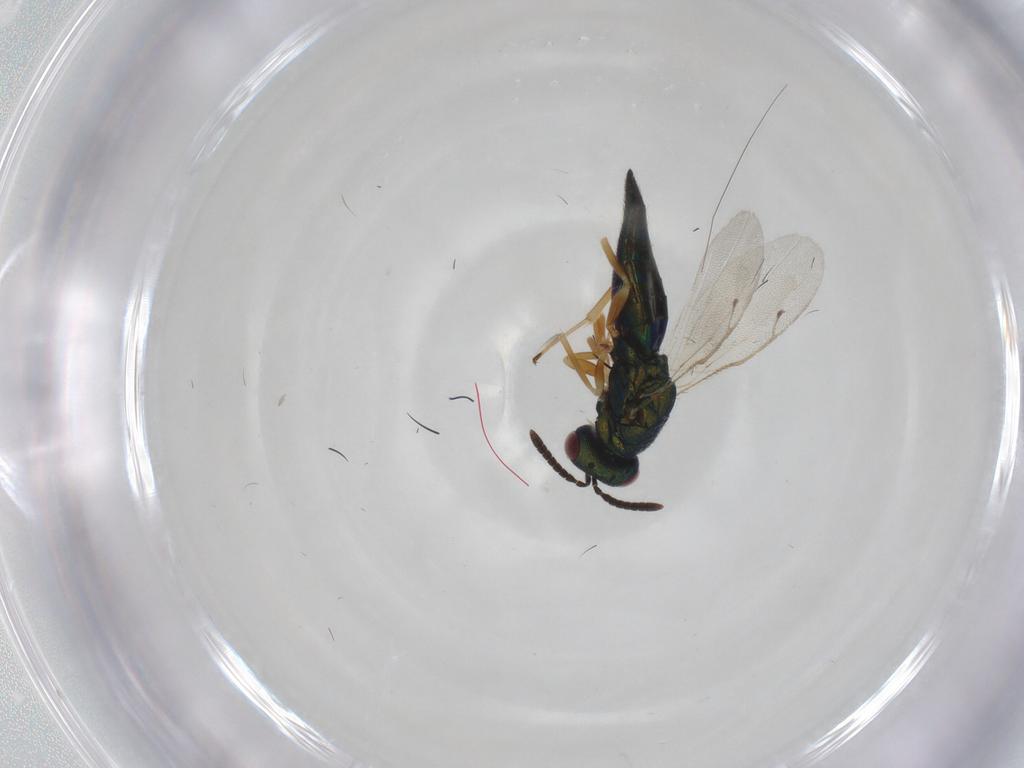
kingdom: Animalia
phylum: Arthropoda
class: Insecta
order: Hymenoptera
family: Pteromalidae
